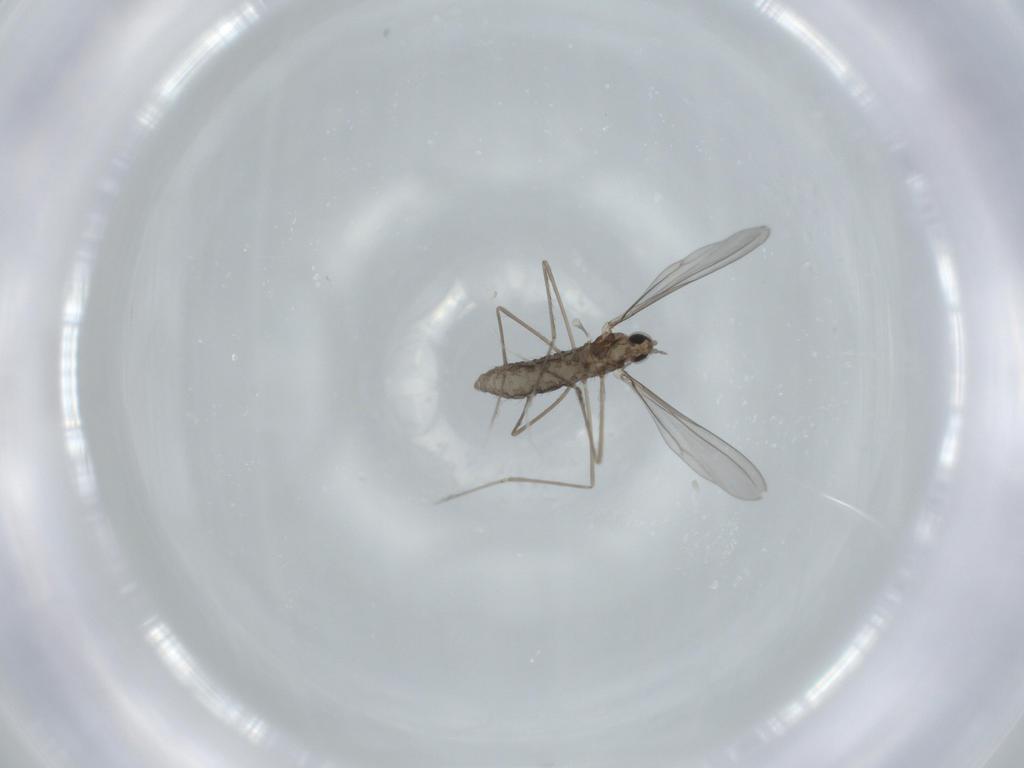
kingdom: Animalia
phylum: Arthropoda
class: Insecta
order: Diptera
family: Cecidomyiidae
